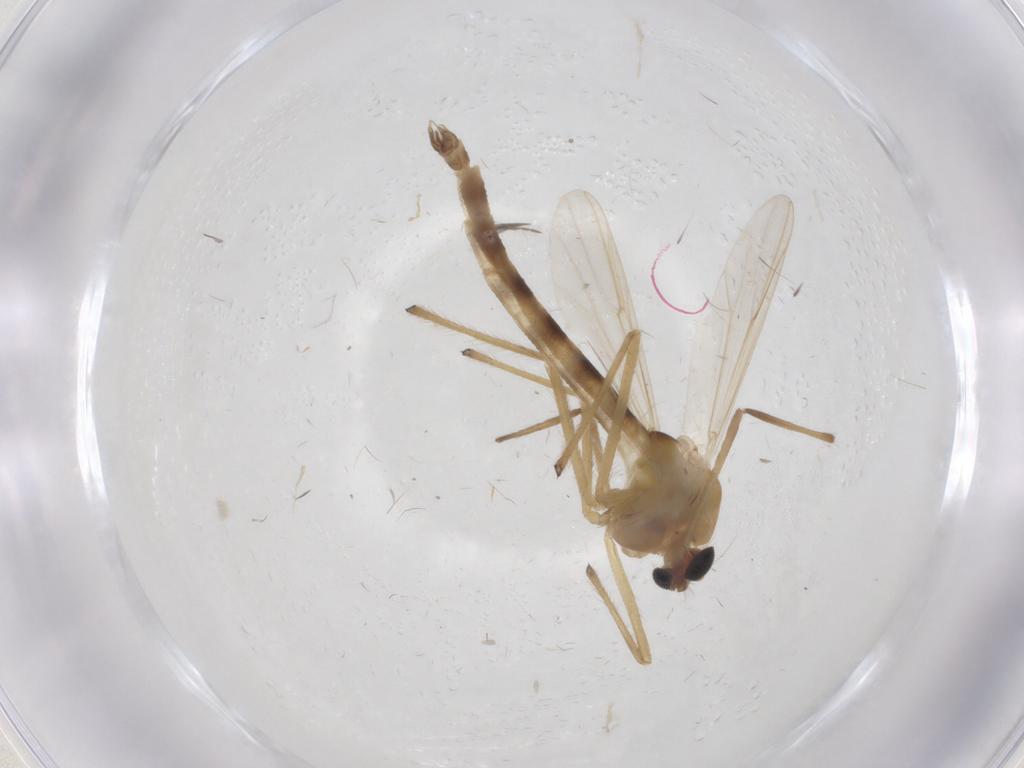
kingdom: Animalia
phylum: Arthropoda
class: Insecta
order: Diptera
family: Chironomidae
